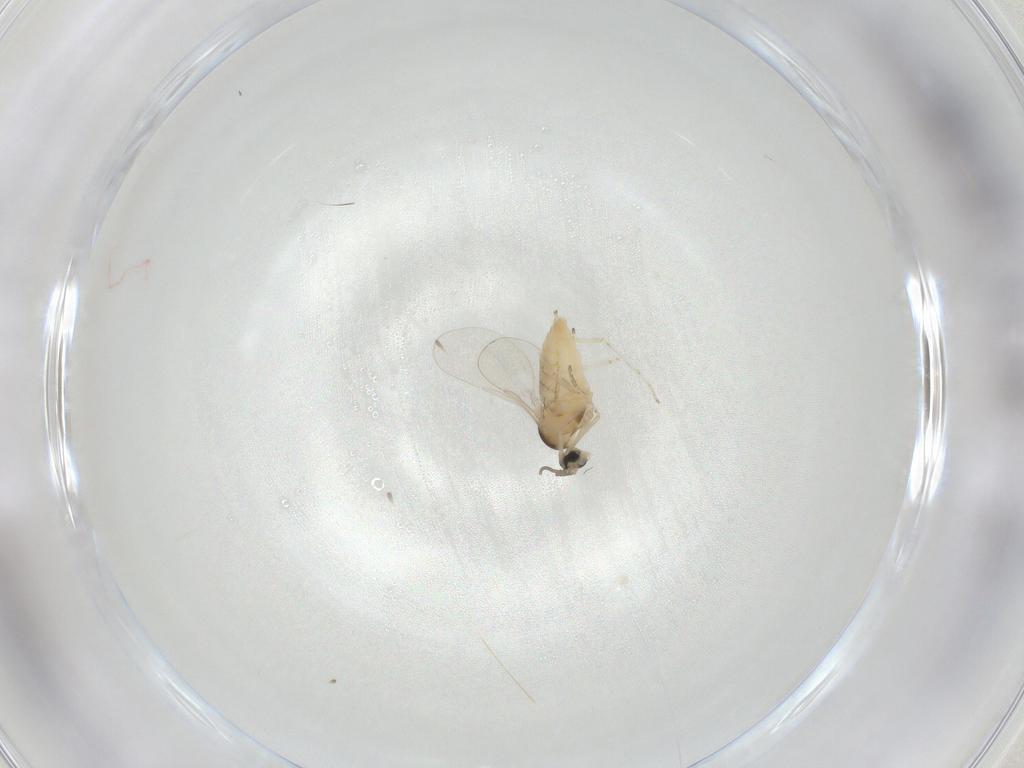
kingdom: Animalia
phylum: Arthropoda
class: Insecta
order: Diptera
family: Cecidomyiidae
